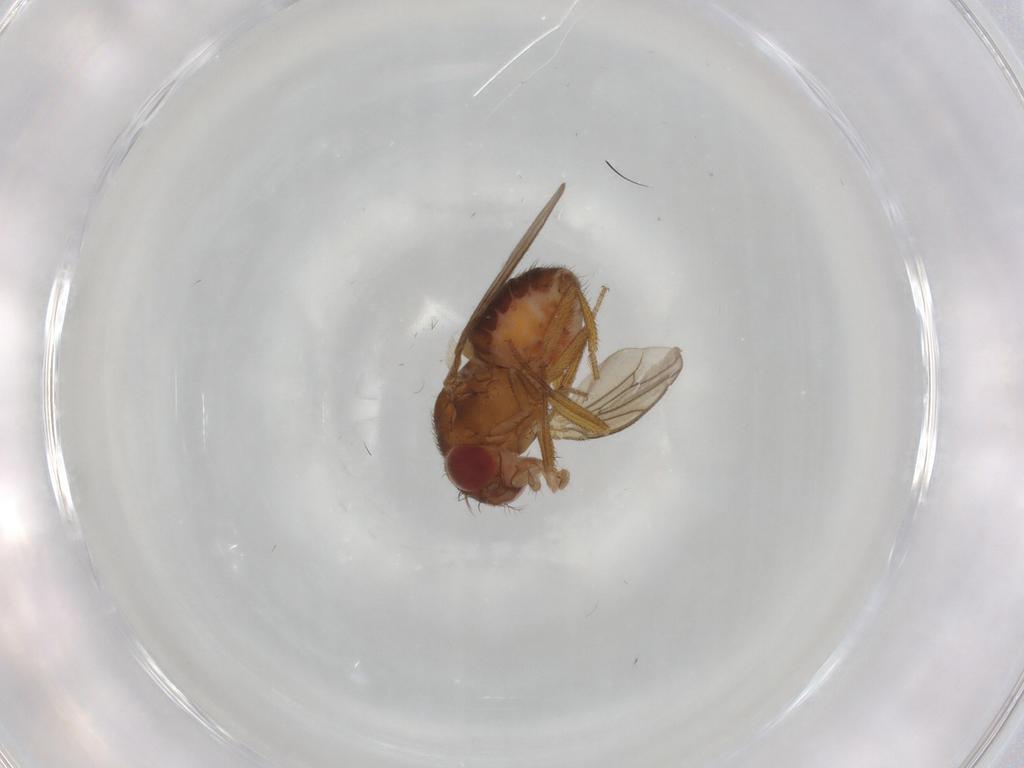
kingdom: Animalia
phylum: Arthropoda
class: Insecta
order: Diptera
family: Drosophilidae
